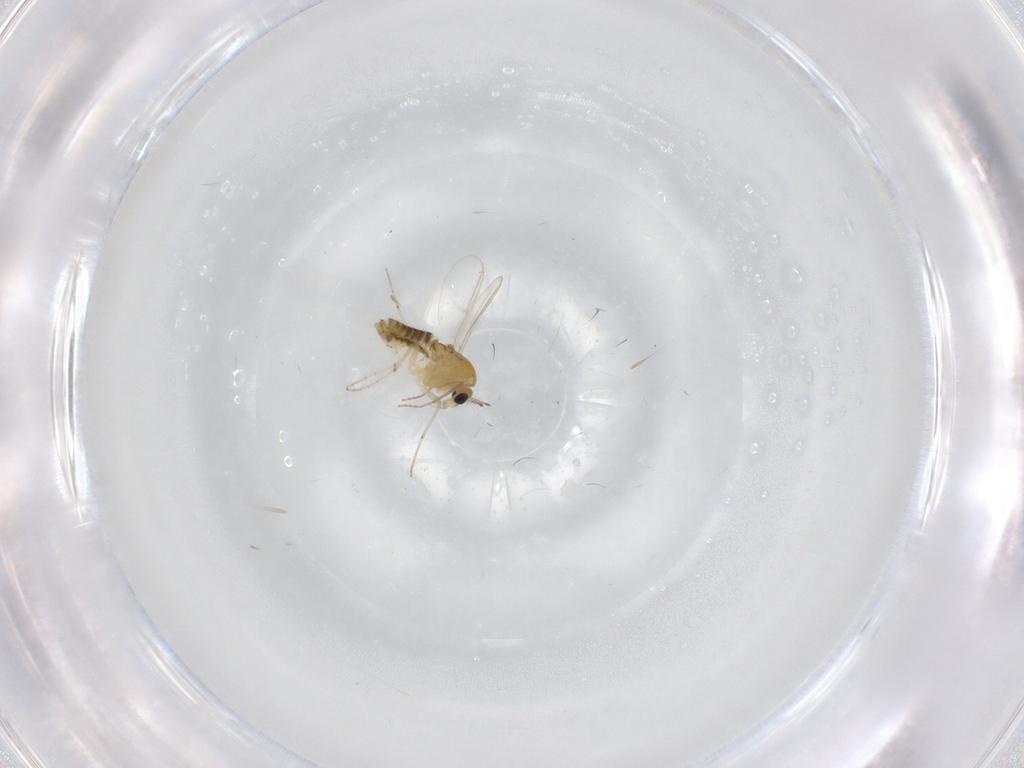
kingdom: Animalia
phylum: Arthropoda
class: Insecta
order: Diptera
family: Chironomidae
